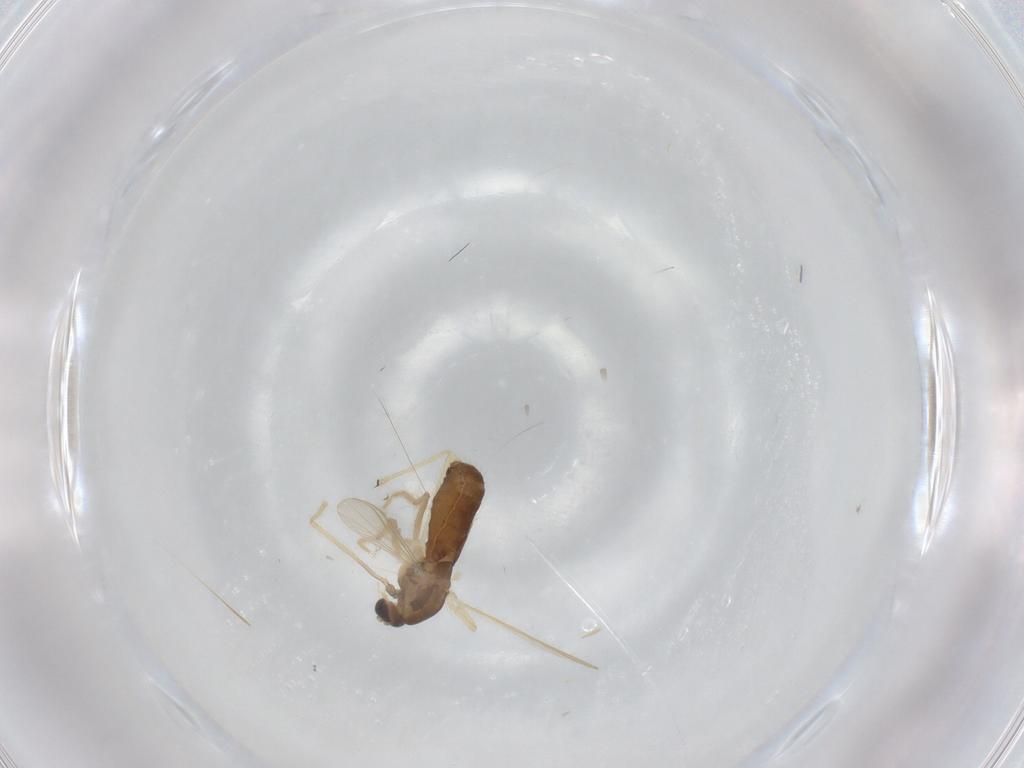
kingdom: Animalia
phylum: Arthropoda
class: Insecta
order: Diptera
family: Chironomidae
